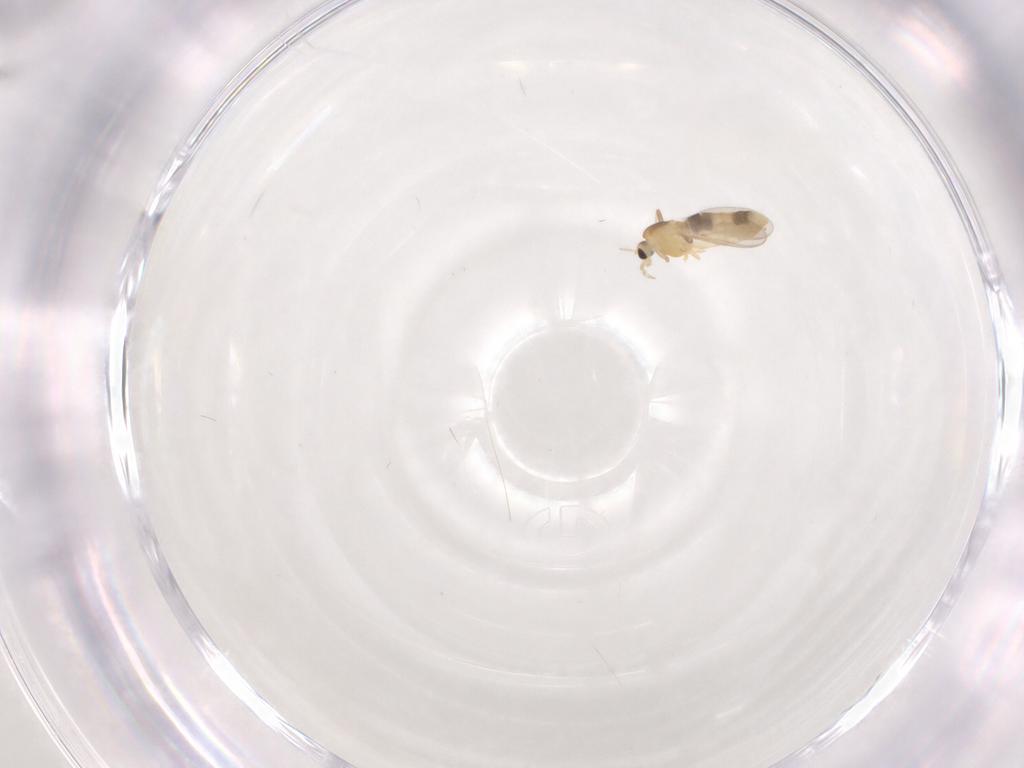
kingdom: Animalia
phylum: Arthropoda
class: Insecta
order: Diptera
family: Chironomidae
